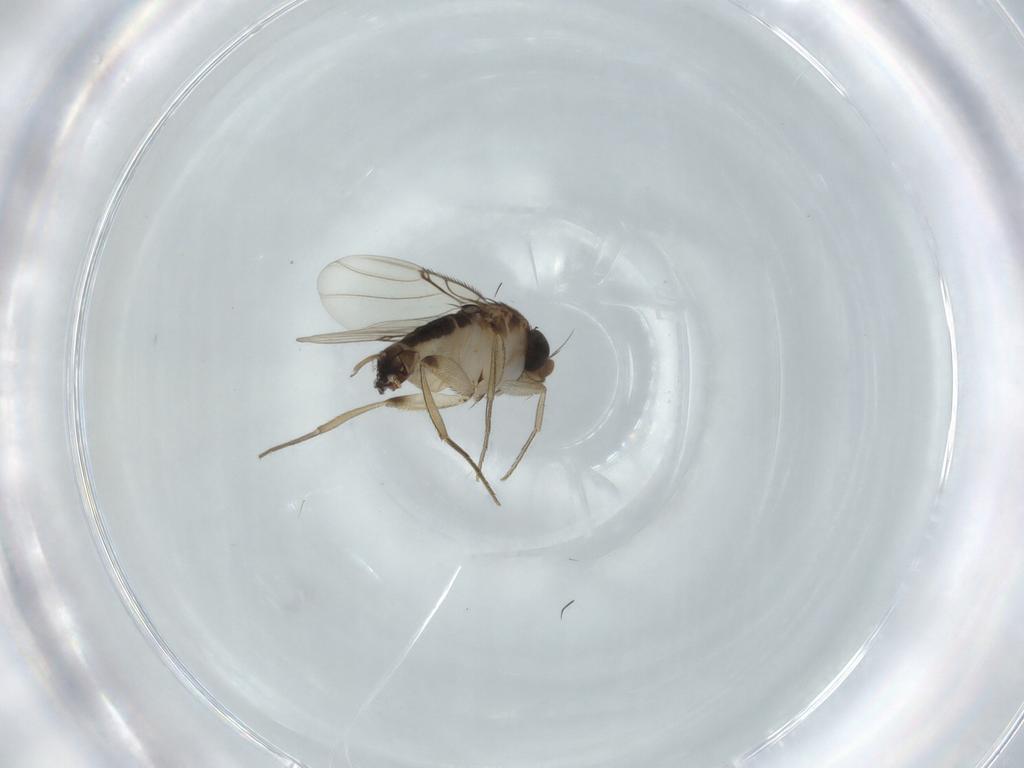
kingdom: Animalia
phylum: Arthropoda
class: Insecta
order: Diptera
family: Phoridae
